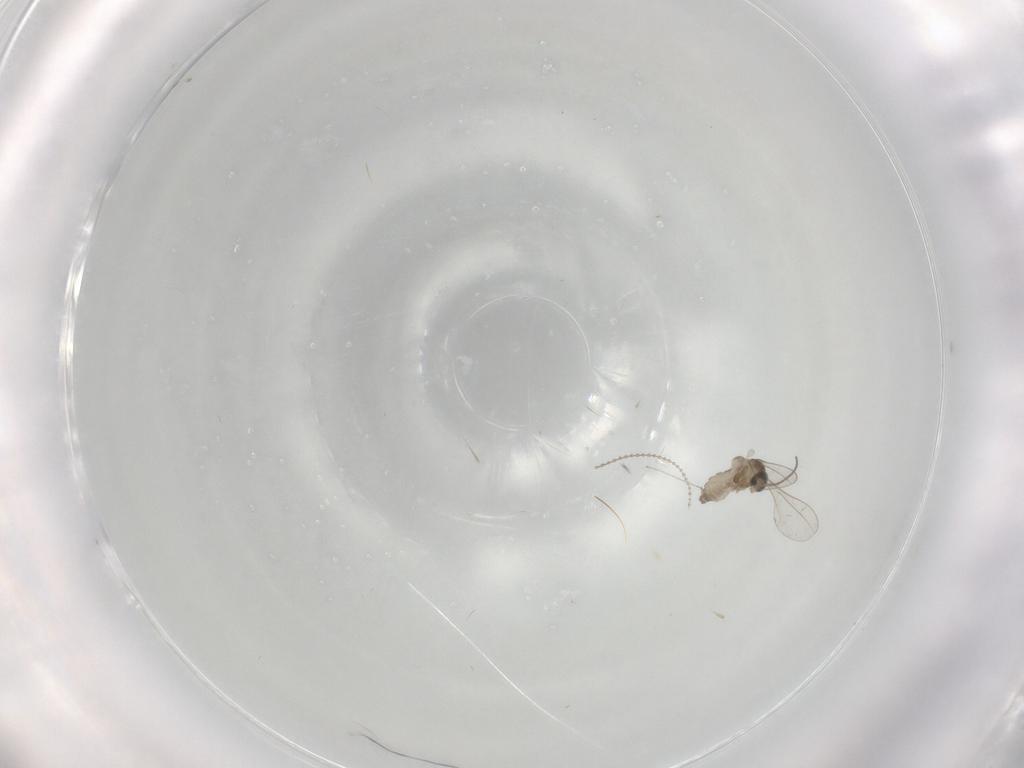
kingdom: Animalia
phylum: Arthropoda
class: Insecta
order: Diptera
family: Cecidomyiidae
